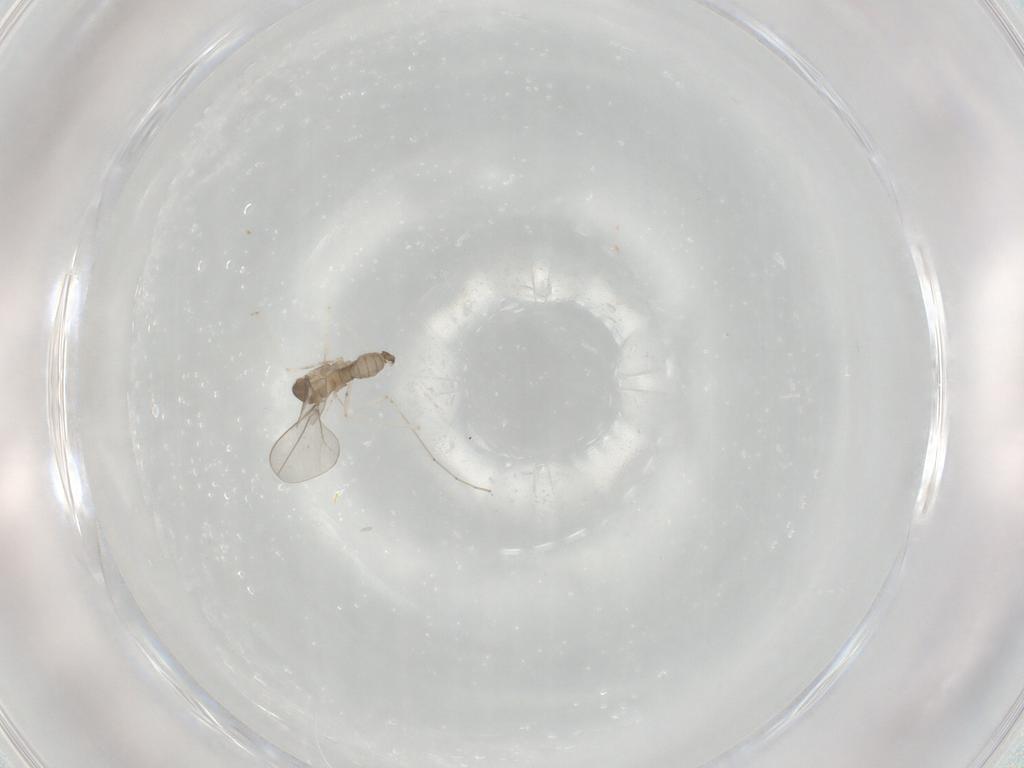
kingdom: Animalia
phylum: Arthropoda
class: Insecta
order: Diptera
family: Cecidomyiidae
